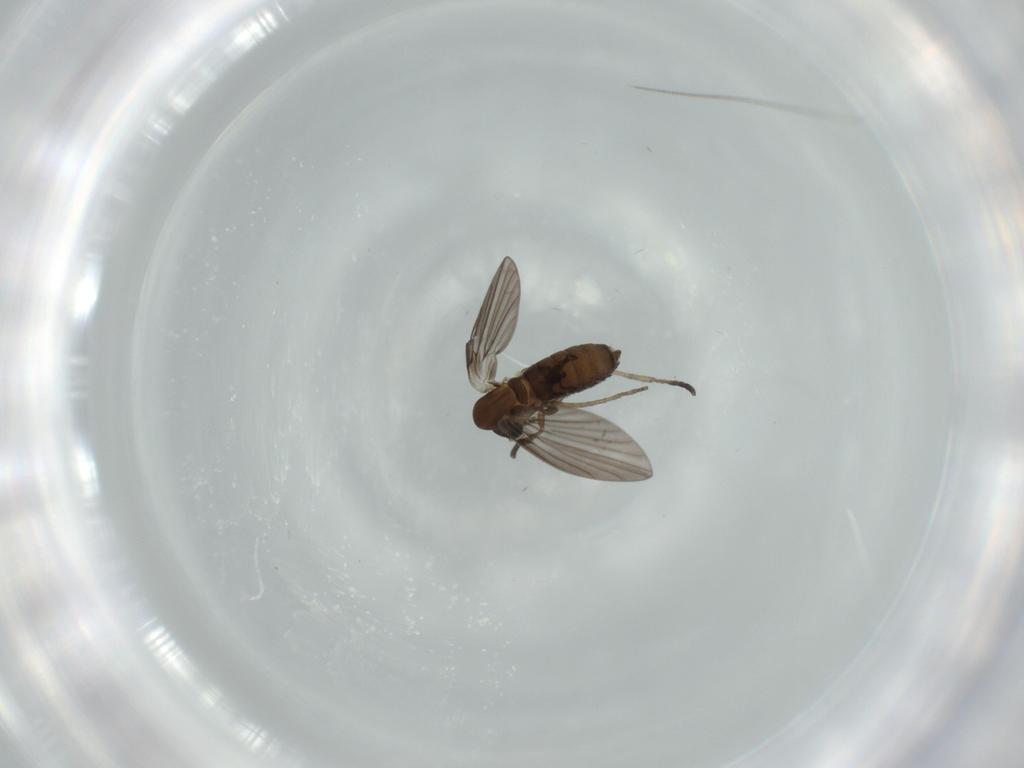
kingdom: Animalia
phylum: Arthropoda
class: Insecta
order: Diptera
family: Psychodidae
